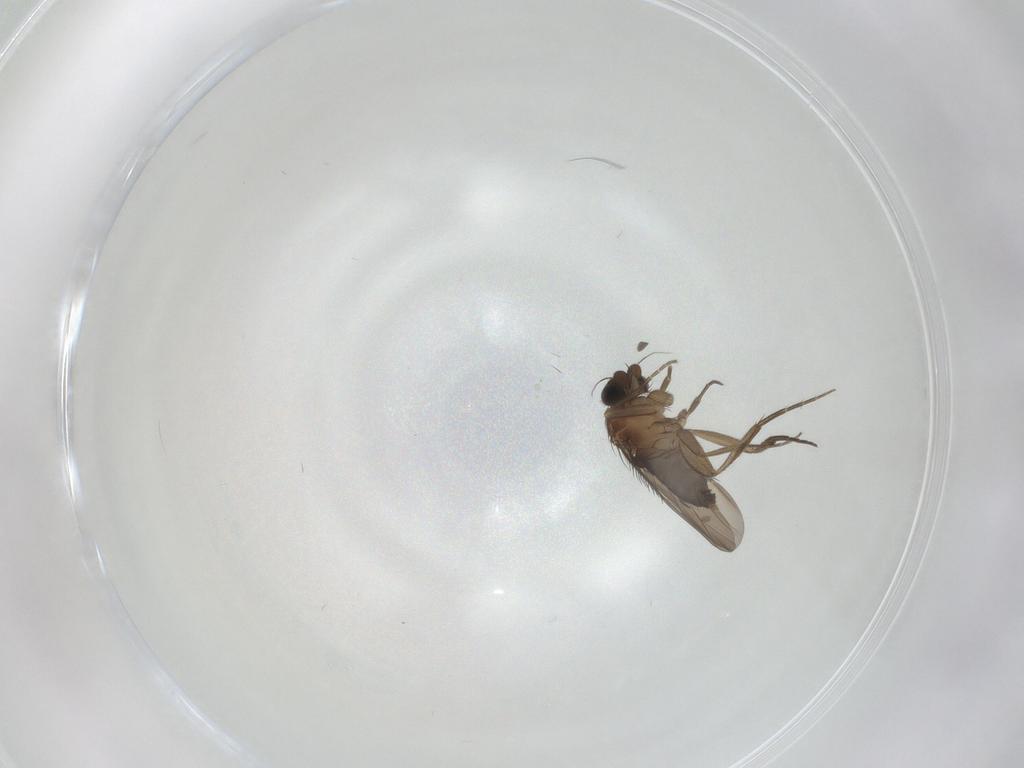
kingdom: Animalia
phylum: Arthropoda
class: Insecta
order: Diptera
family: Phoridae
